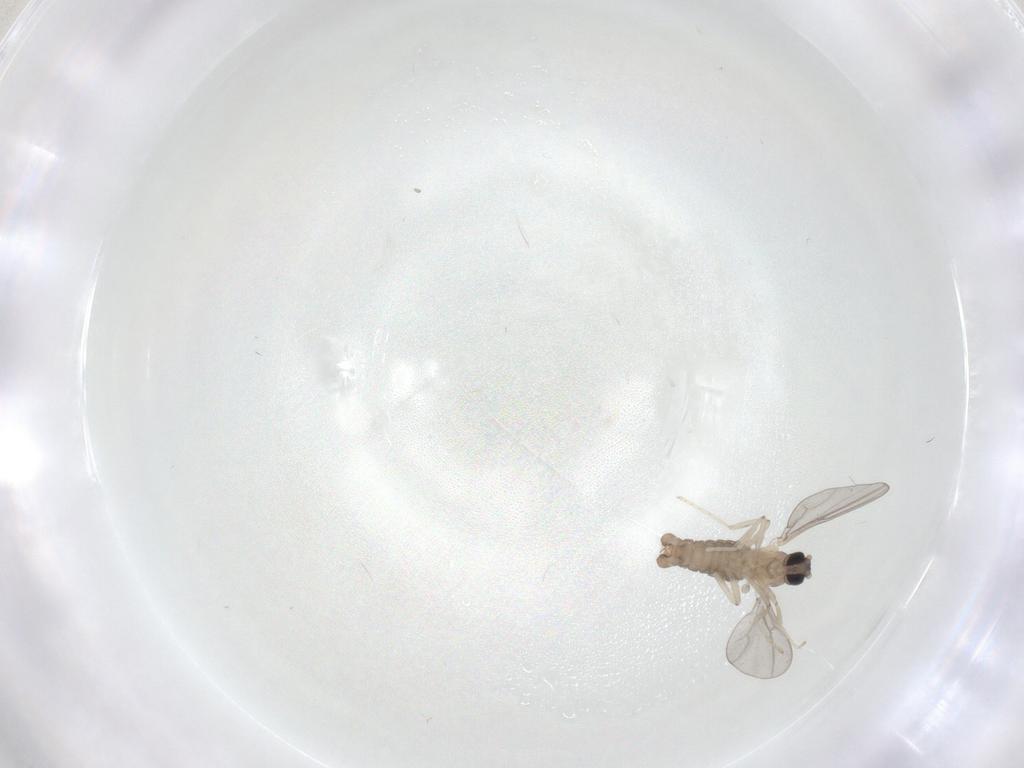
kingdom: Animalia
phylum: Arthropoda
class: Insecta
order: Diptera
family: Cecidomyiidae
